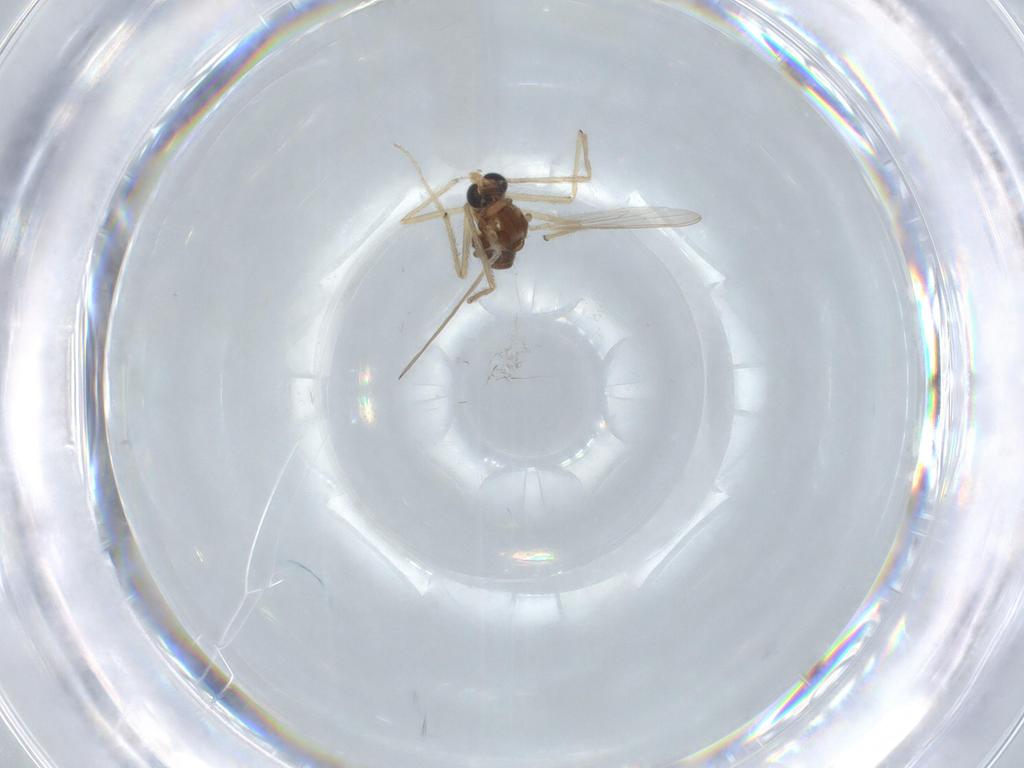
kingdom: Animalia
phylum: Arthropoda
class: Insecta
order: Diptera
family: Chironomidae
